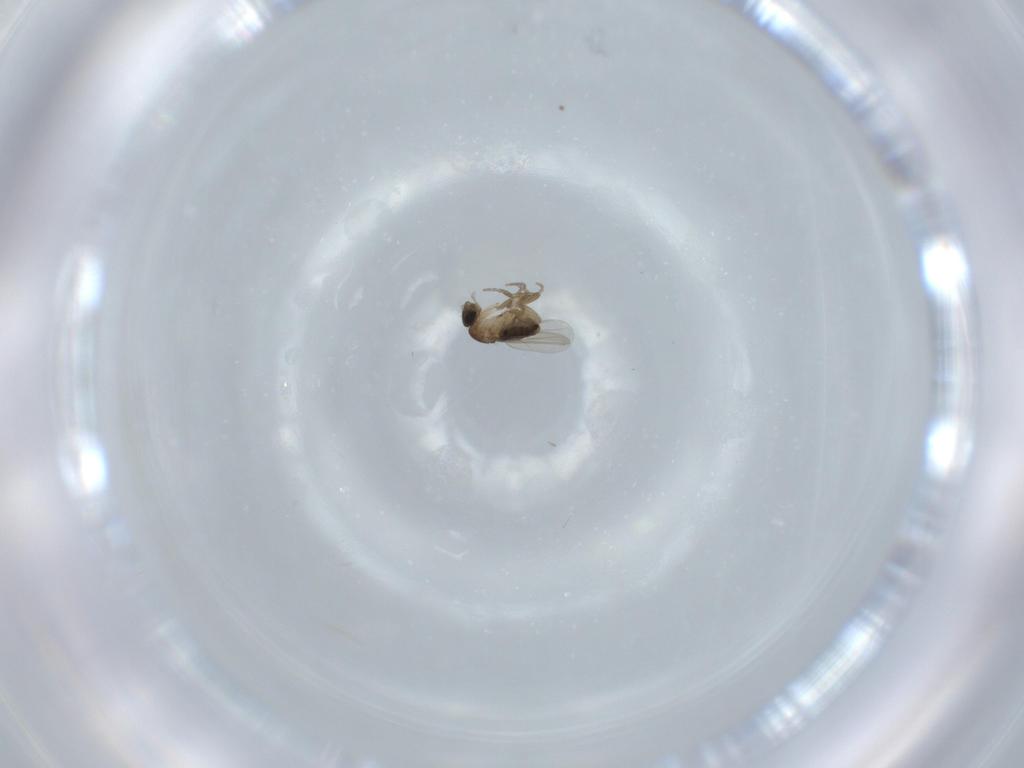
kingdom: Animalia
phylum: Arthropoda
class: Insecta
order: Diptera
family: Phoridae
